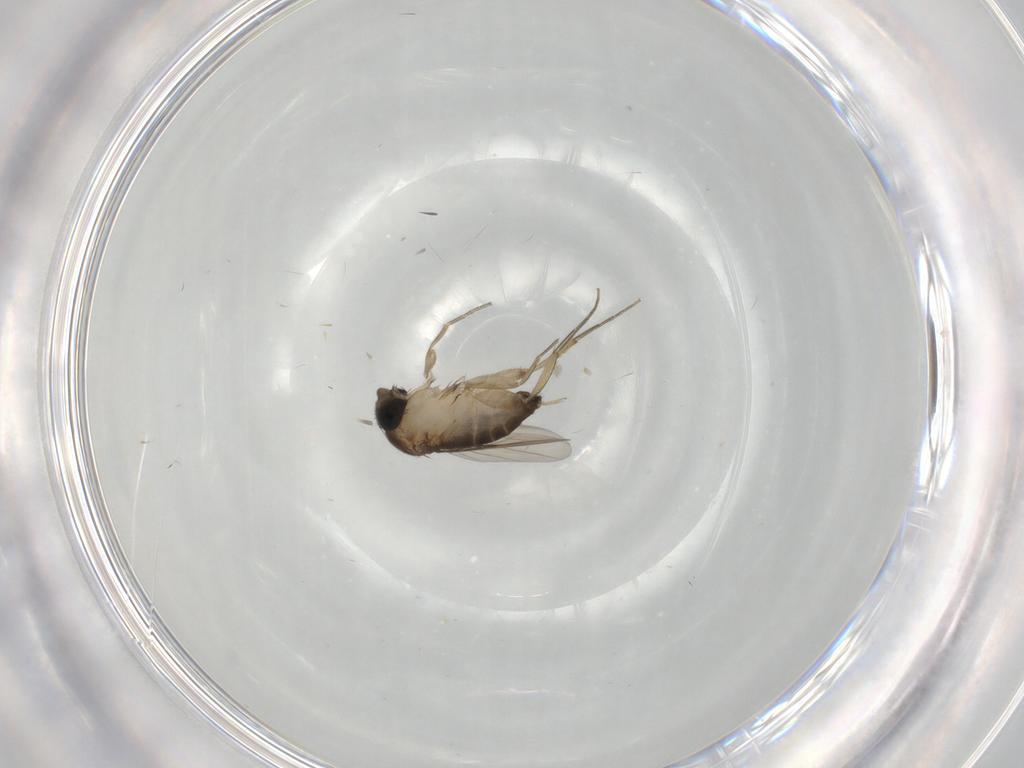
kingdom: Animalia
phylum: Arthropoda
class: Insecta
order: Diptera
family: Phoridae
